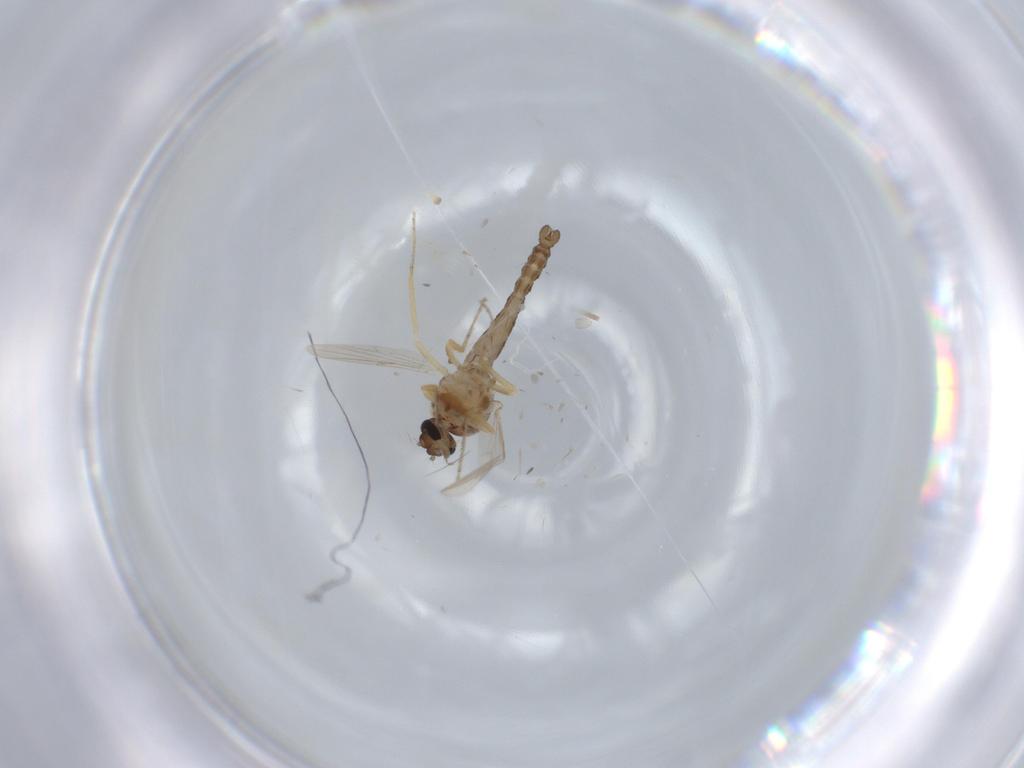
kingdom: Animalia
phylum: Arthropoda
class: Insecta
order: Diptera
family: Ceratopogonidae
